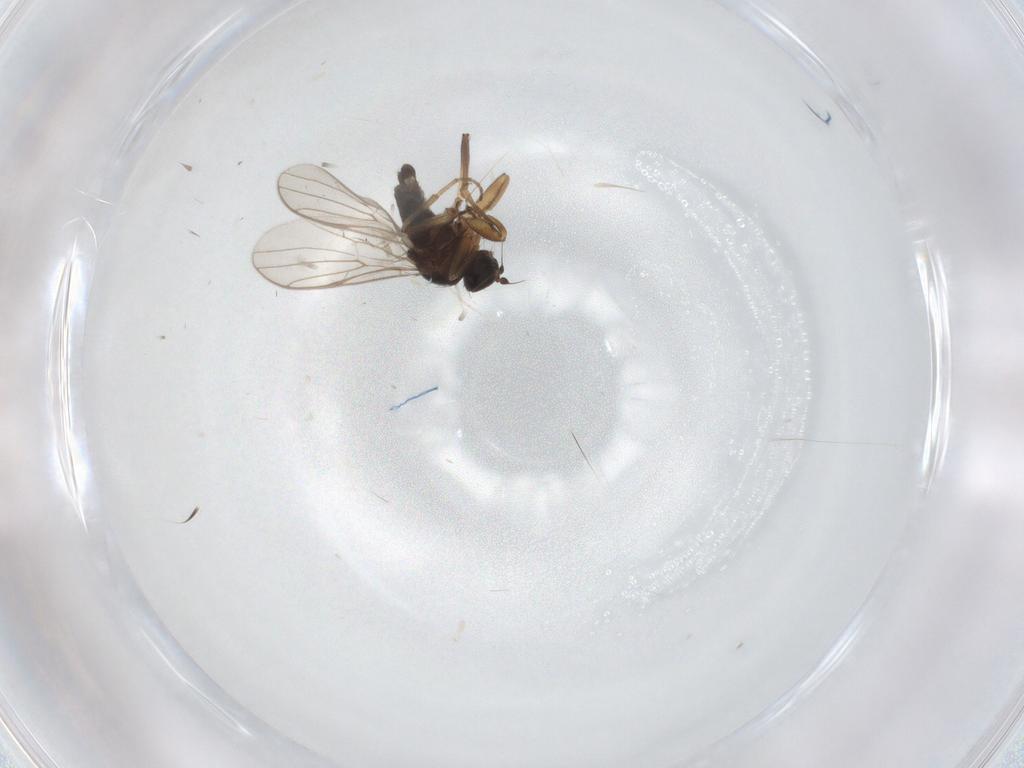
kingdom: Animalia
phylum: Arthropoda
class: Insecta
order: Diptera
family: Hybotidae
